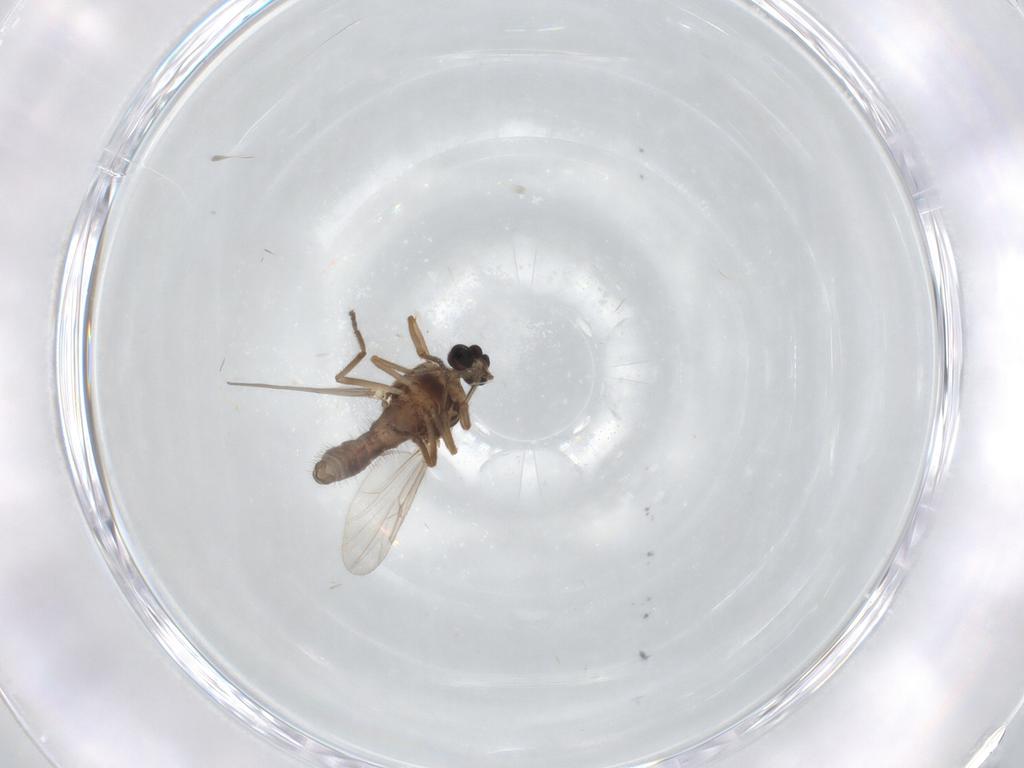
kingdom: Animalia
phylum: Arthropoda
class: Insecta
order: Diptera
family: Ceratopogonidae
